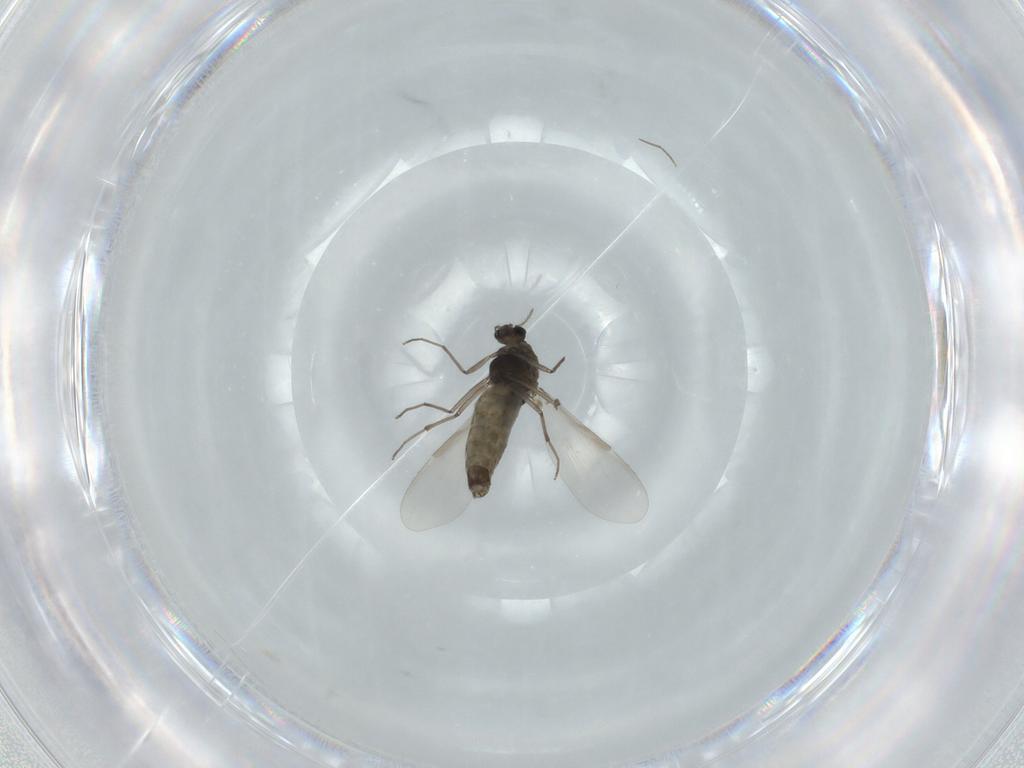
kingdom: Animalia
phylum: Arthropoda
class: Insecta
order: Diptera
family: Chironomidae
